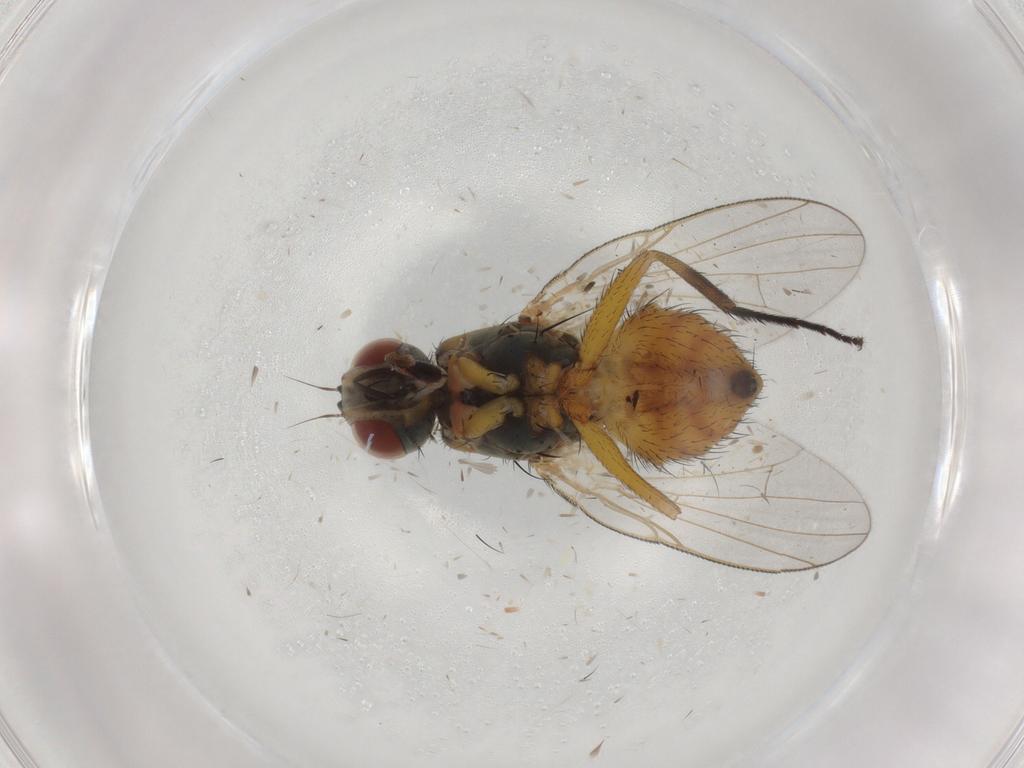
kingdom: Animalia
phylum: Arthropoda
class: Insecta
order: Diptera
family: Muscidae
